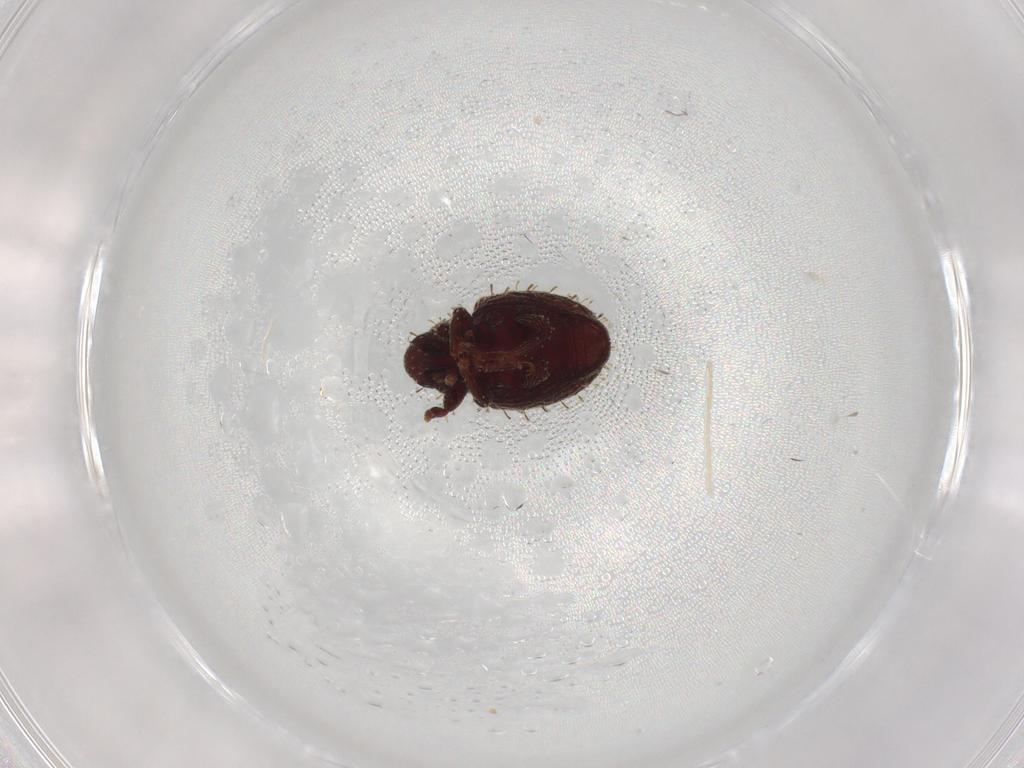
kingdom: Animalia
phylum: Arthropoda
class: Insecta
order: Coleoptera
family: Curculionidae
